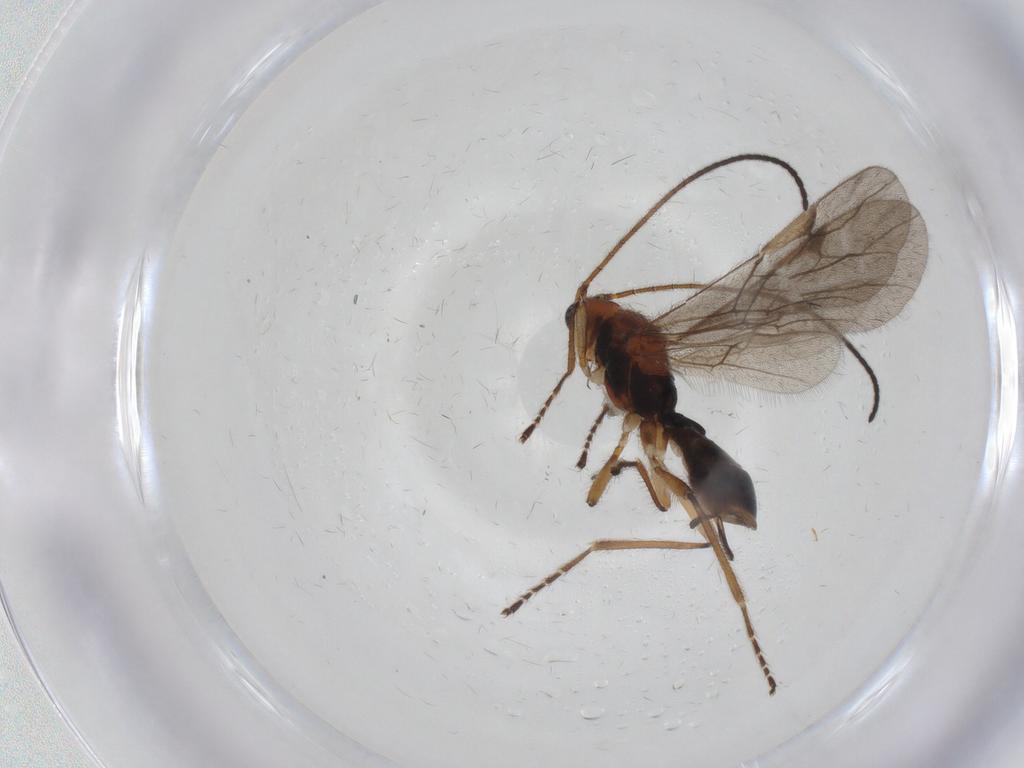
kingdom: Animalia
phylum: Arthropoda
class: Insecta
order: Hymenoptera
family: Braconidae
